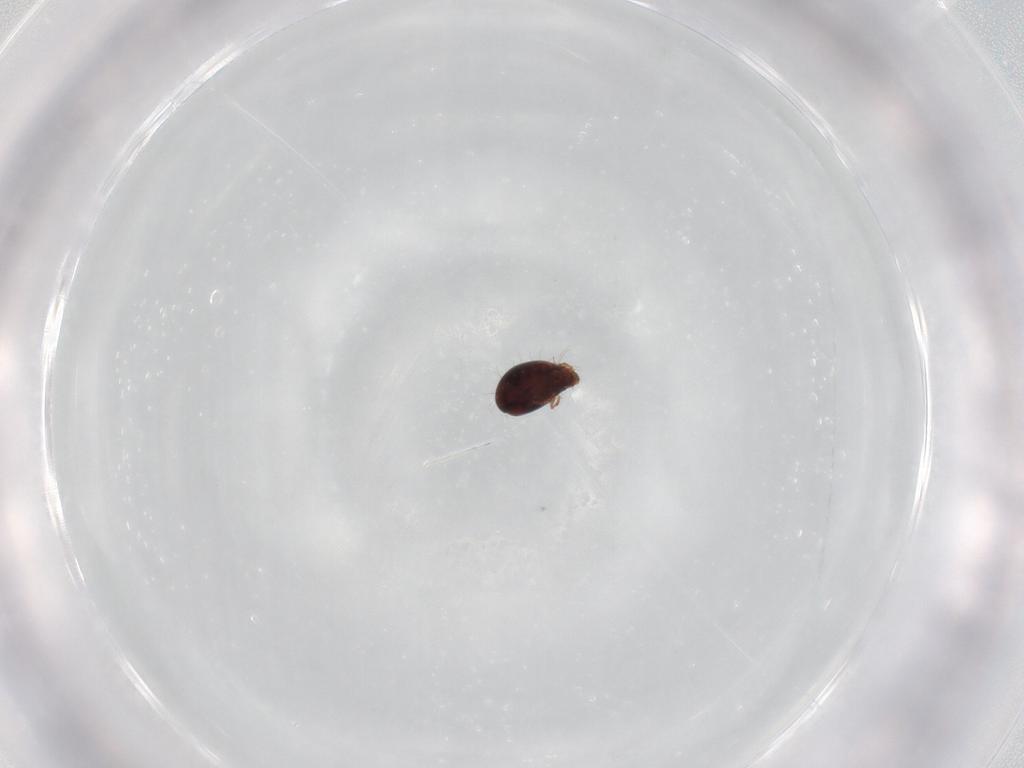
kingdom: Animalia
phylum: Arthropoda
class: Arachnida
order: Sarcoptiformes
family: Humerobatidae
